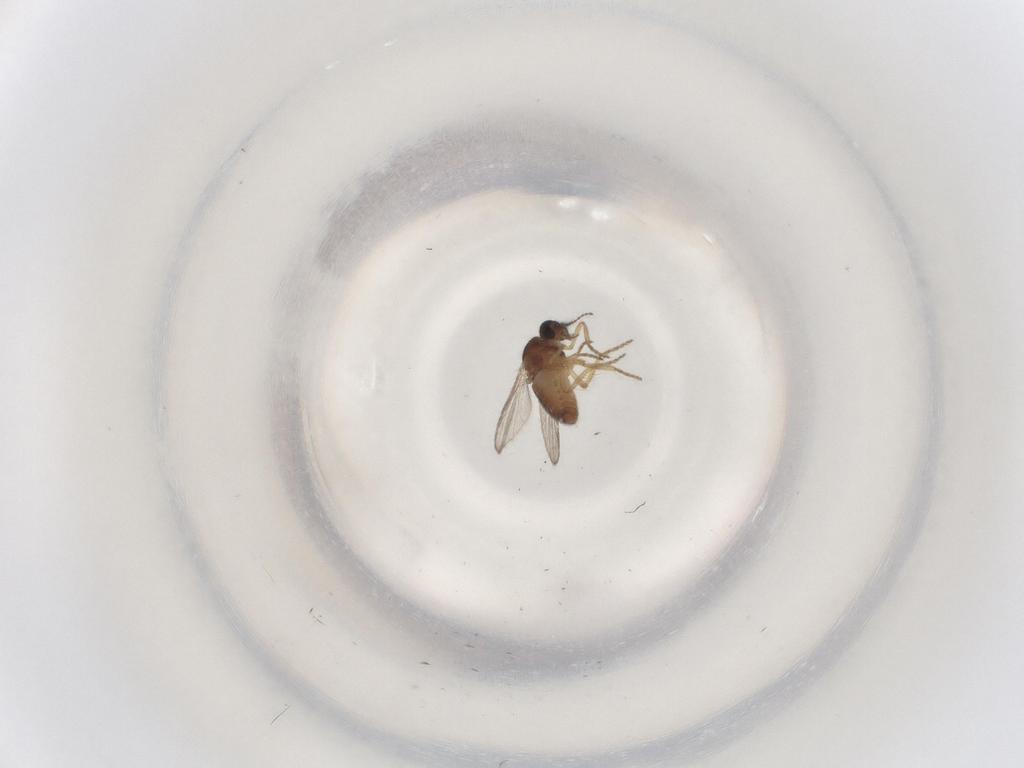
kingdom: Animalia
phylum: Arthropoda
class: Insecta
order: Diptera
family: Ceratopogonidae
